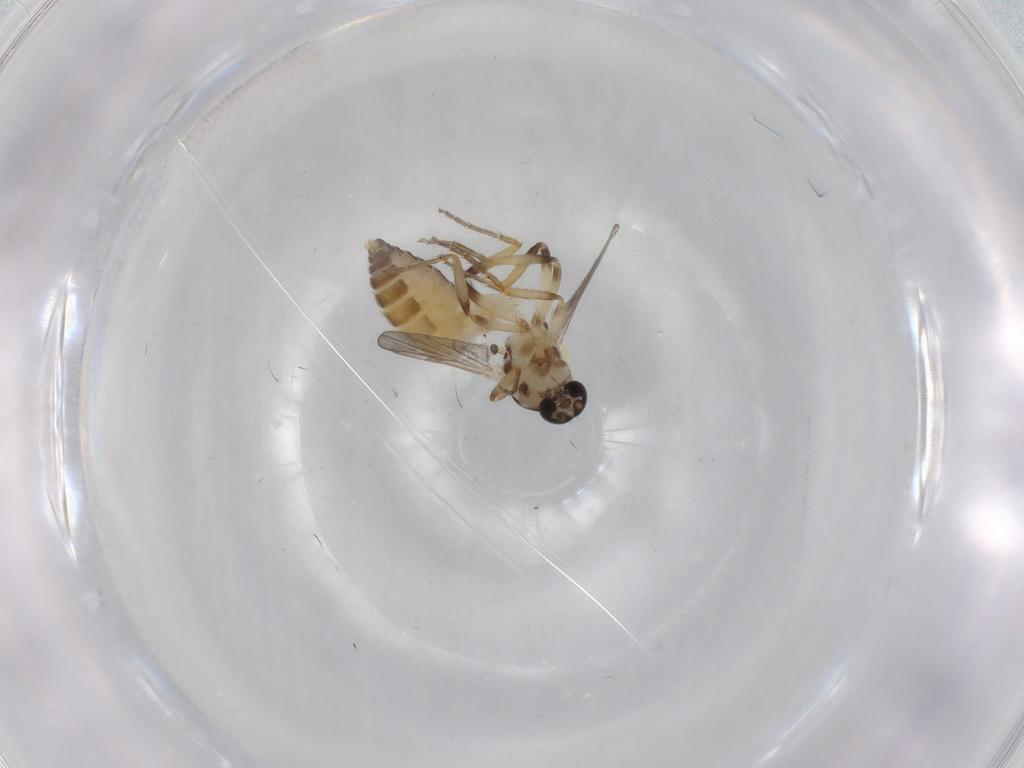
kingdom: Animalia
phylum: Arthropoda
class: Insecta
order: Diptera
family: Ceratopogonidae
